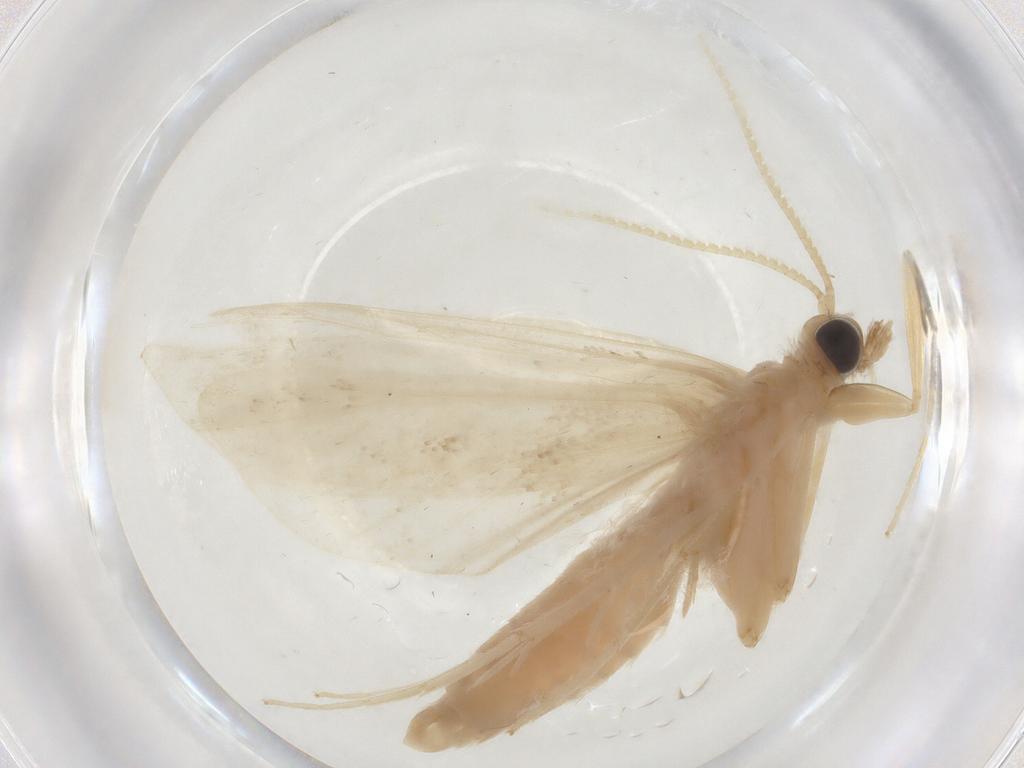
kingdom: Animalia
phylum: Arthropoda
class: Insecta
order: Lepidoptera
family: Crambidae
